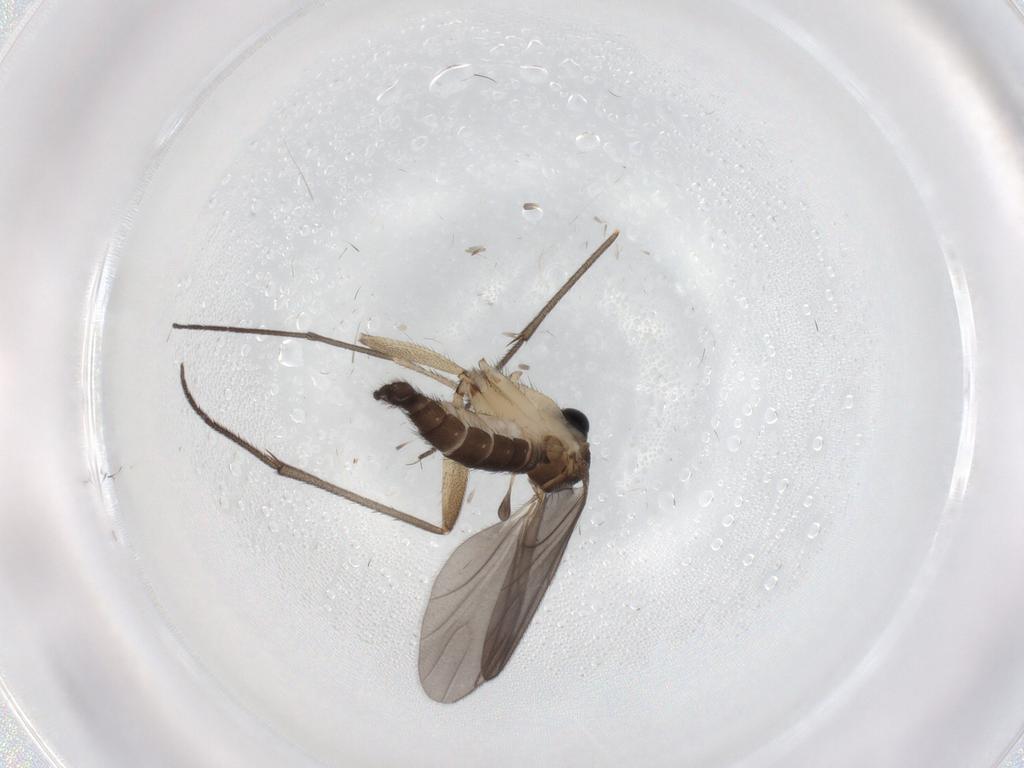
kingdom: Animalia
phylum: Arthropoda
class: Insecta
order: Diptera
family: Sciaridae
